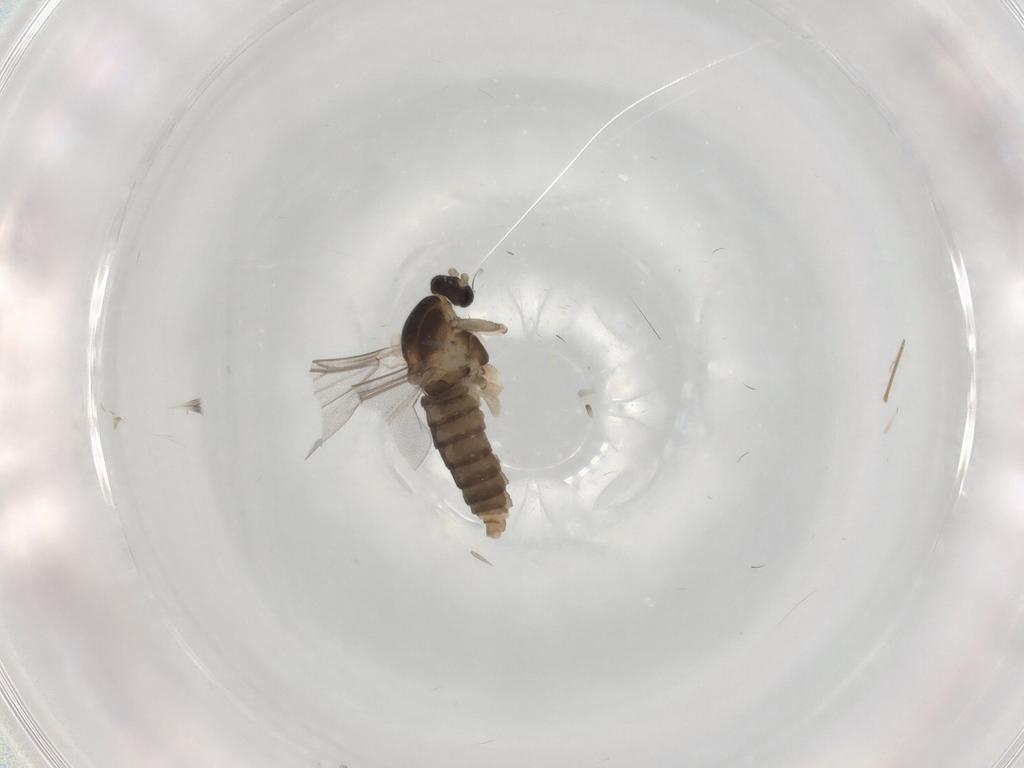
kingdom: Animalia
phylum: Arthropoda
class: Insecta
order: Diptera
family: Cecidomyiidae
